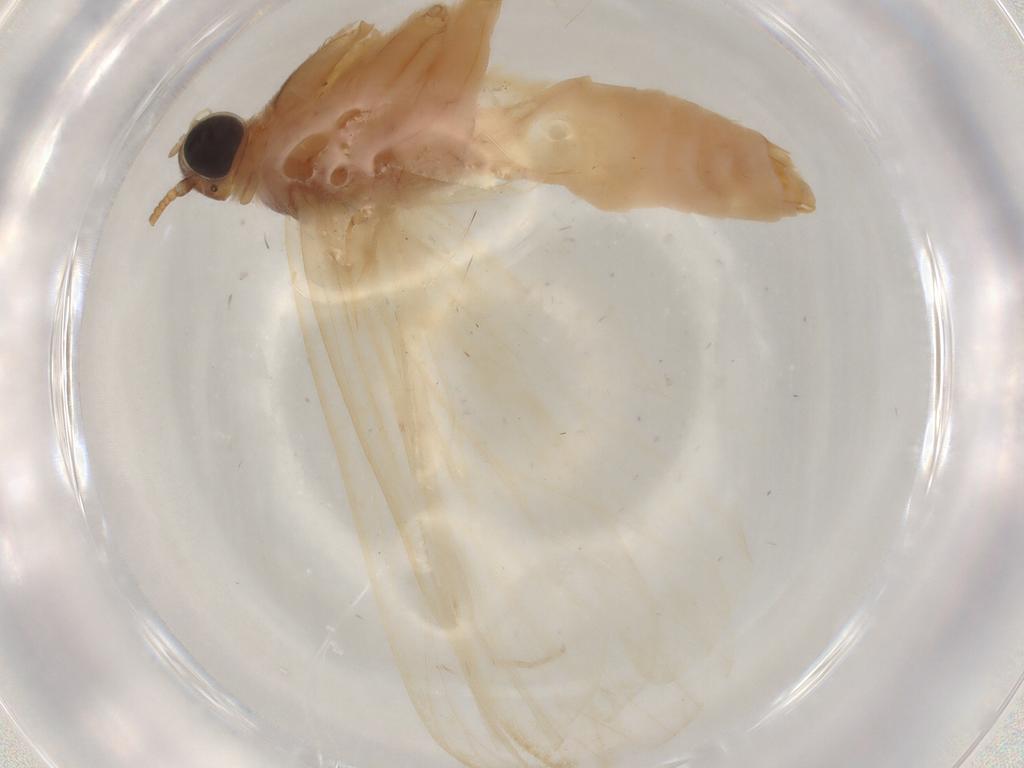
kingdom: Animalia
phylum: Arthropoda
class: Insecta
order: Lepidoptera
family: Gelechiidae
